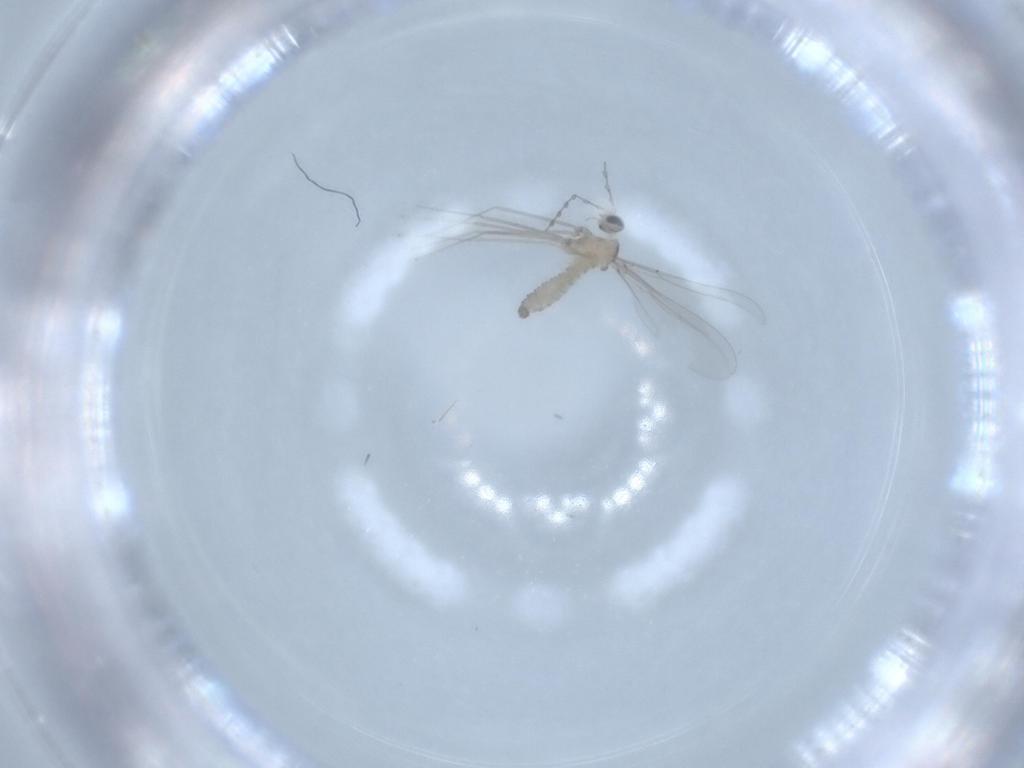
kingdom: Animalia
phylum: Arthropoda
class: Insecta
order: Diptera
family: Cecidomyiidae
